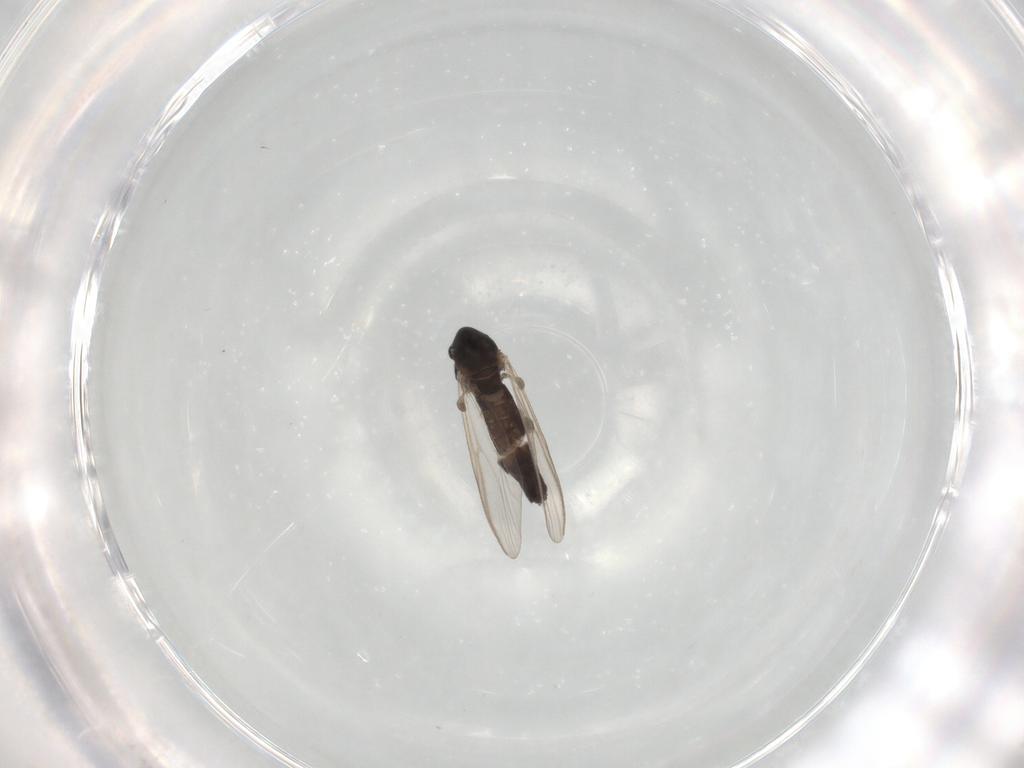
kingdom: Animalia
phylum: Arthropoda
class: Insecta
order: Diptera
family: Chironomidae
